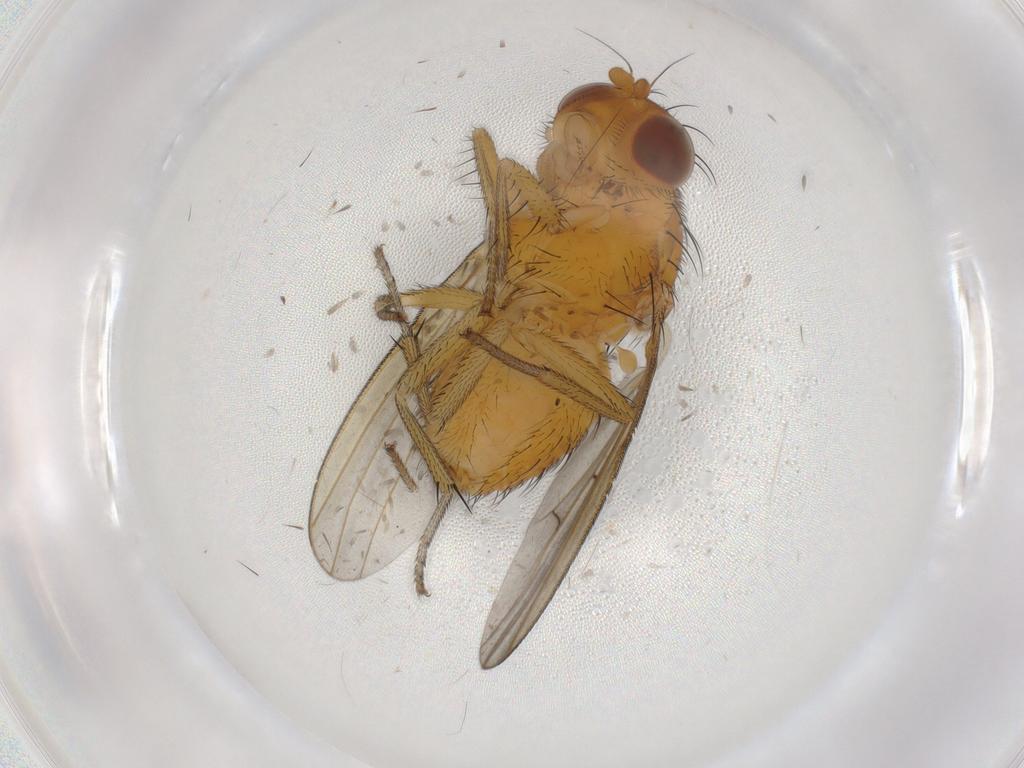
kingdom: Animalia
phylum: Arthropoda
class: Insecta
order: Diptera
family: Psychodidae
